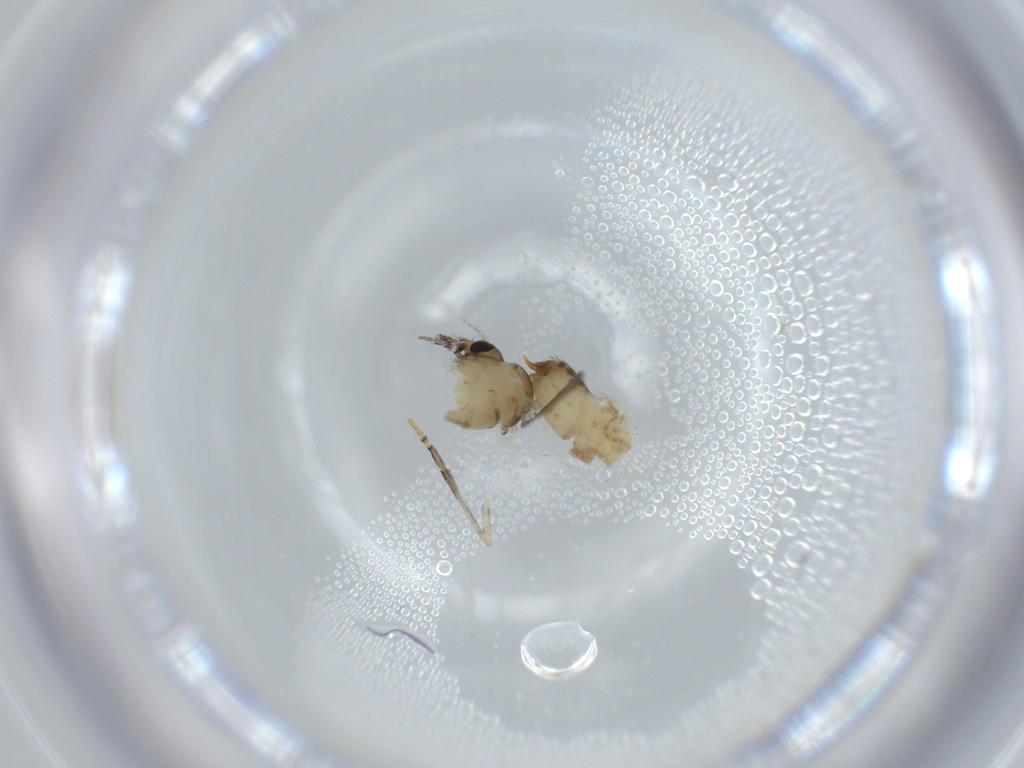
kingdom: Animalia
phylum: Arthropoda
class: Insecta
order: Diptera
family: Psychodidae
